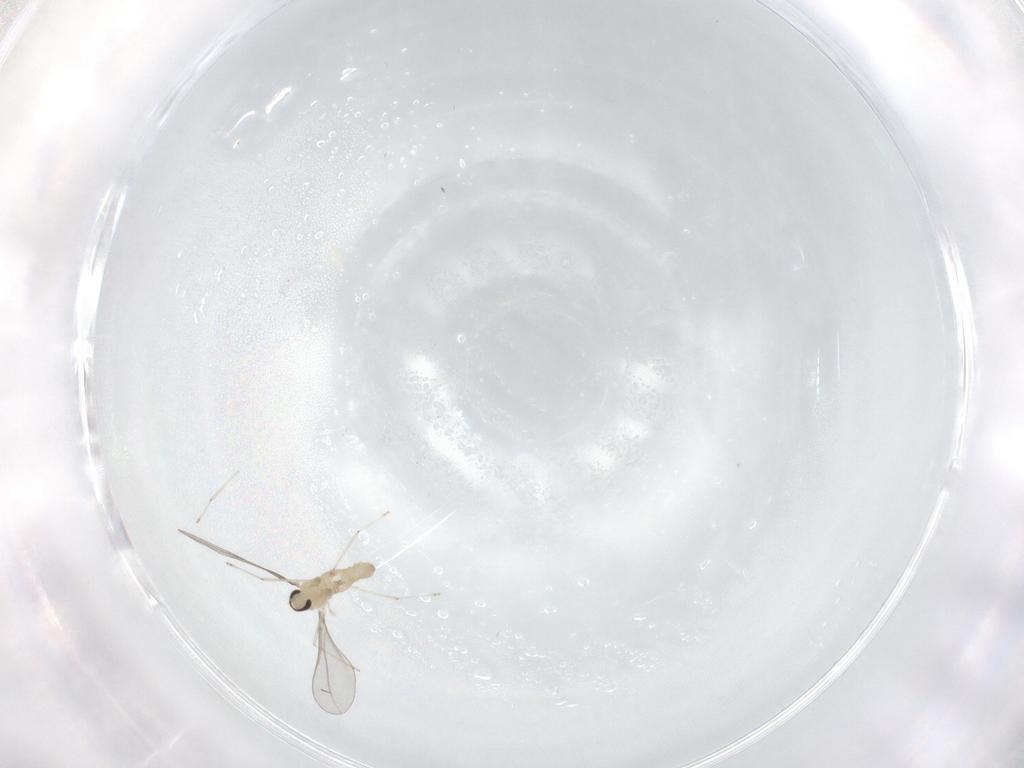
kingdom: Animalia
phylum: Arthropoda
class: Insecta
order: Diptera
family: Cecidomyiidae
